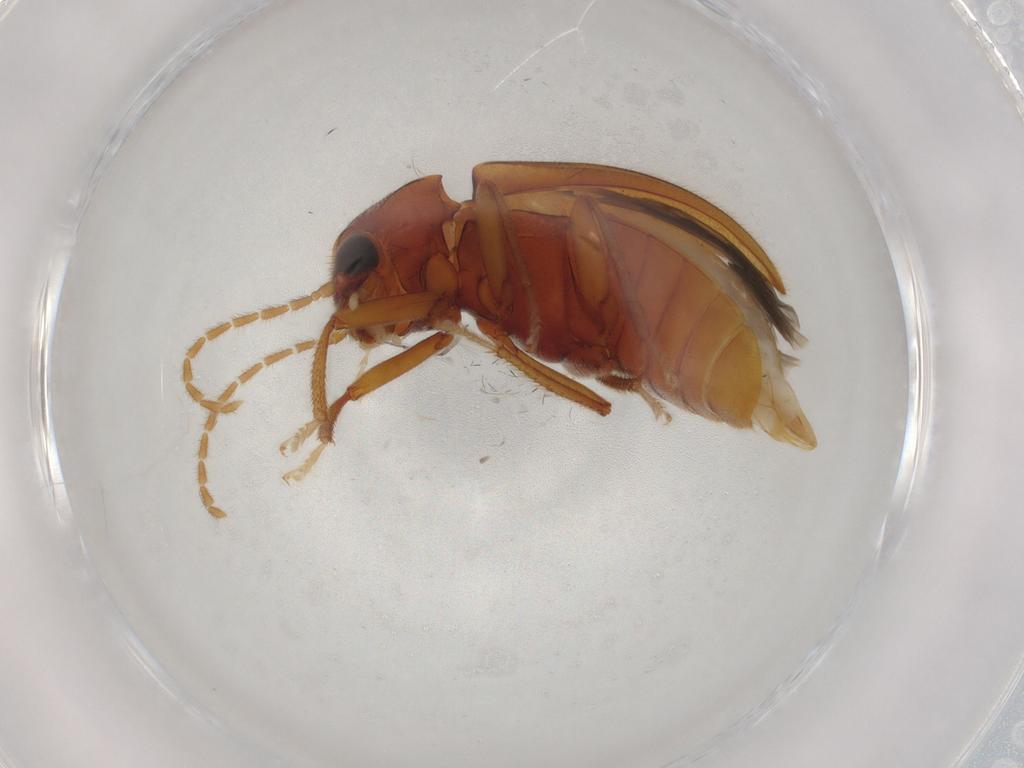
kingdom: Animalia
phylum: Arthropoda
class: Insecta
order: Coleoptera
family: Ptilodactylidae
